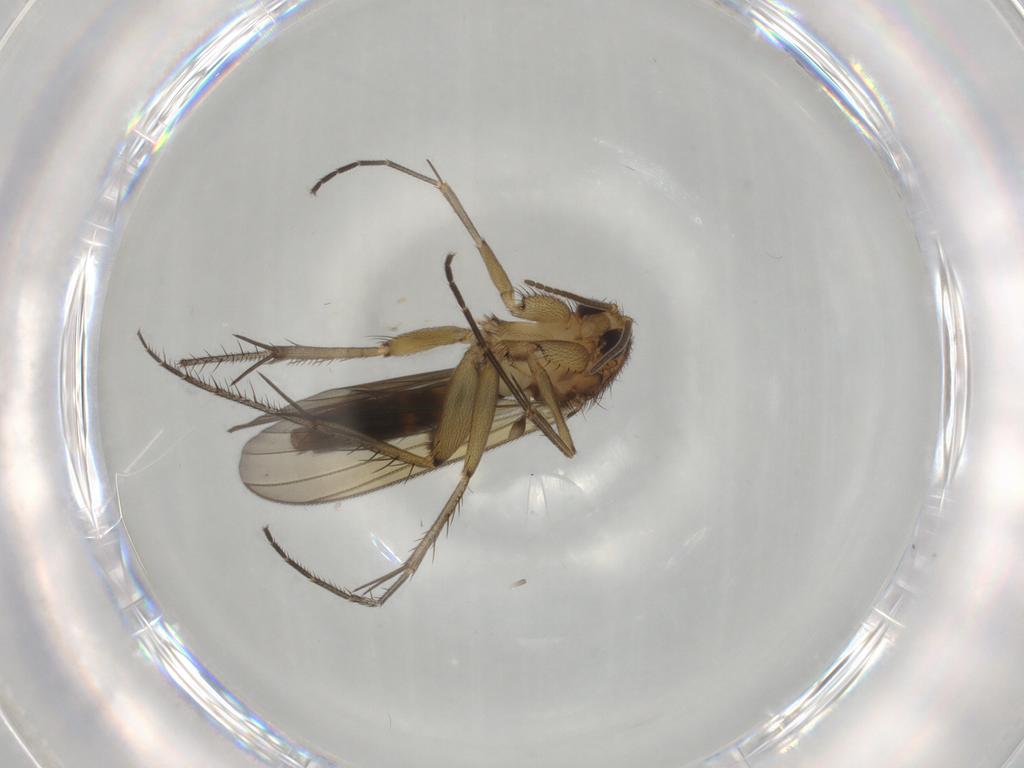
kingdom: Animalia
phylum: Arthropoda
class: Insecta
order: Diptera
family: Mycetophilidae
